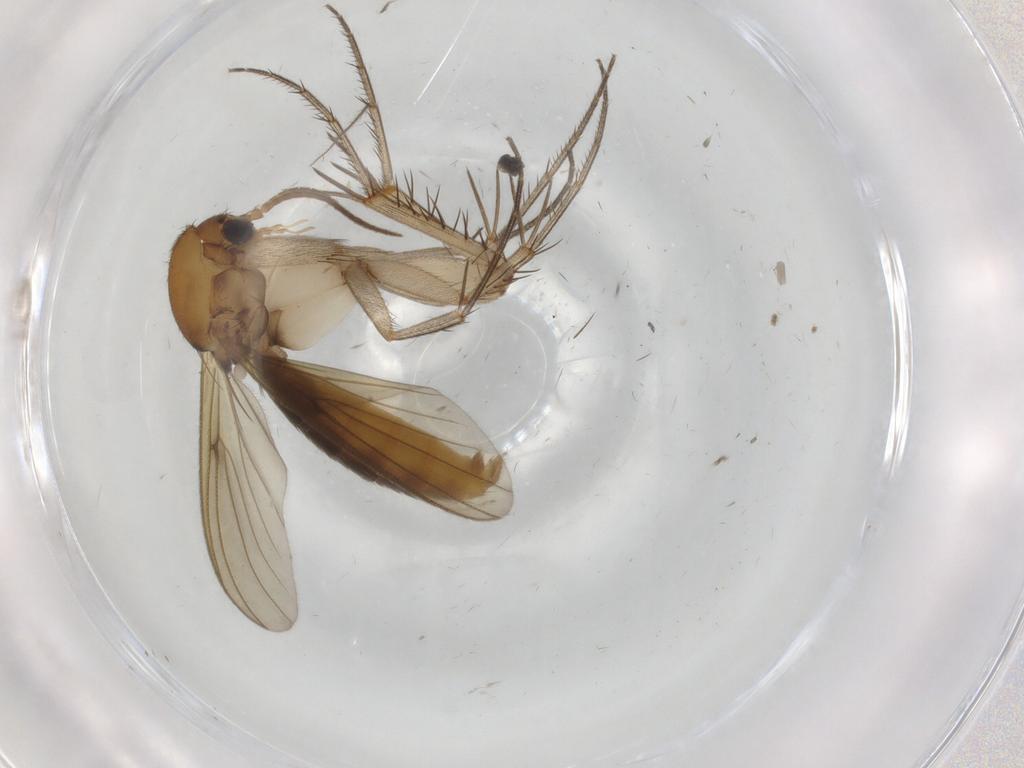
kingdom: Animalia
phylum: Arthropoda
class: Insecta
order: Diptera
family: Mycetophilidae
